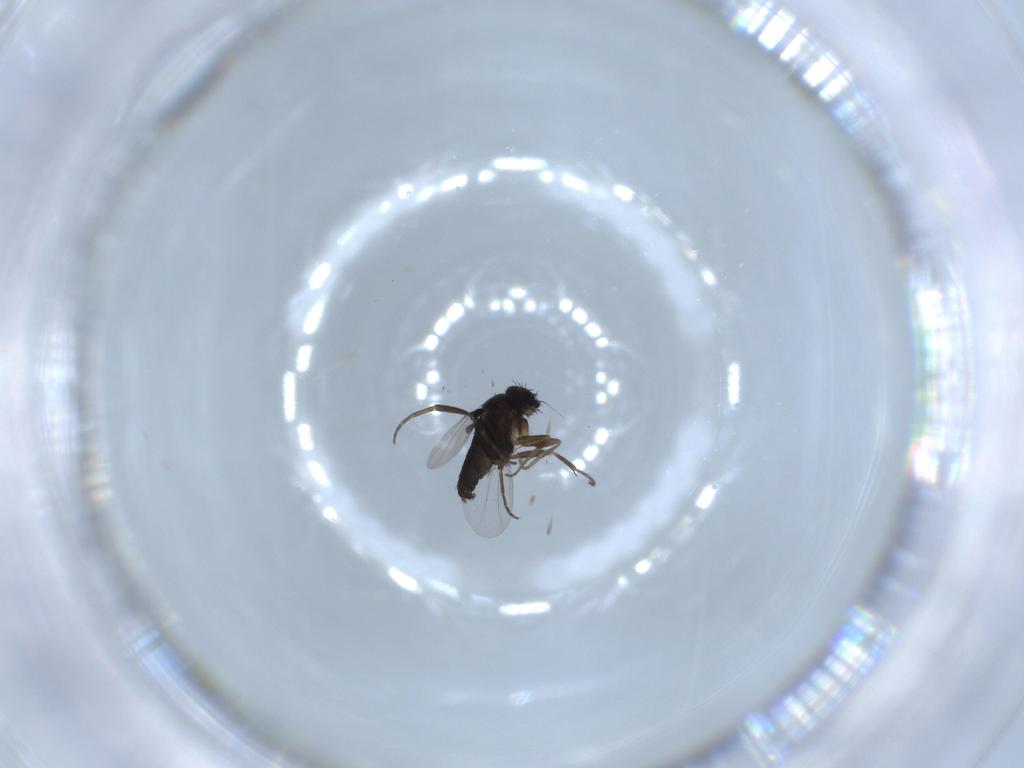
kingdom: Animalia
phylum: Arthropoda
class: Insecta
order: Diptera
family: Phoridae
